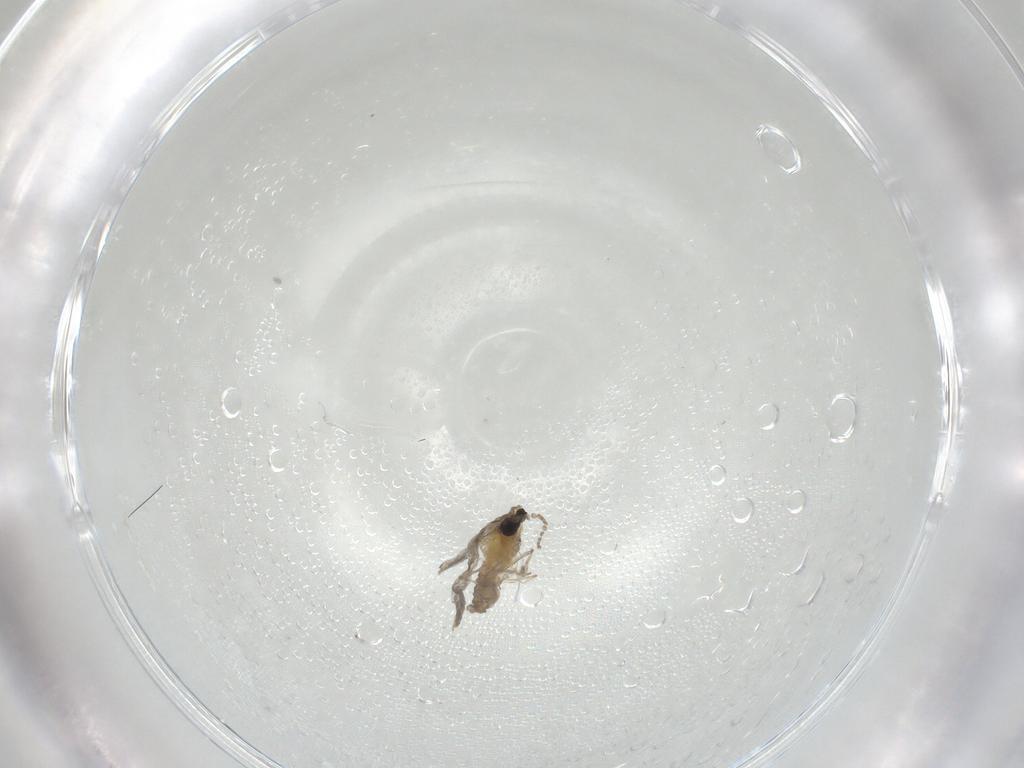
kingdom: Animalia
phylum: Arthropoda
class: Insecta
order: Diptera
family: Cecidomyiidae
